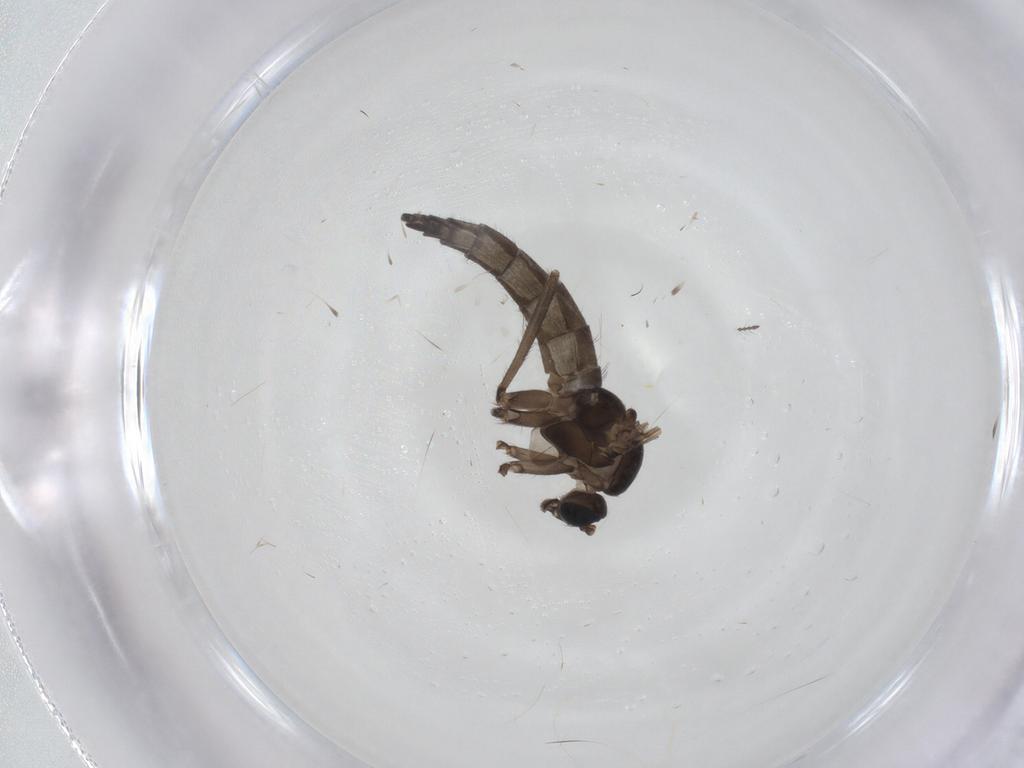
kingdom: Animalia
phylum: Arthropoda
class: Insecta
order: Diptera
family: Chironomidae
